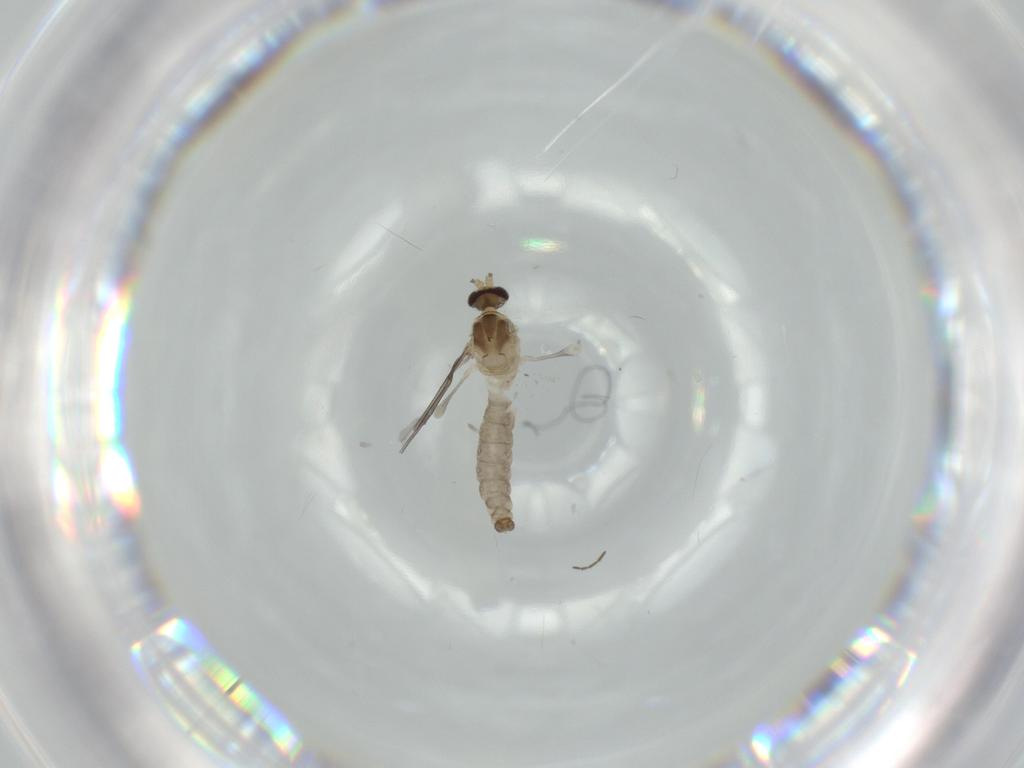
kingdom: Animalia
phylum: Arthropoda
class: Insecta
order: Diptera
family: Cecidomyiidae
